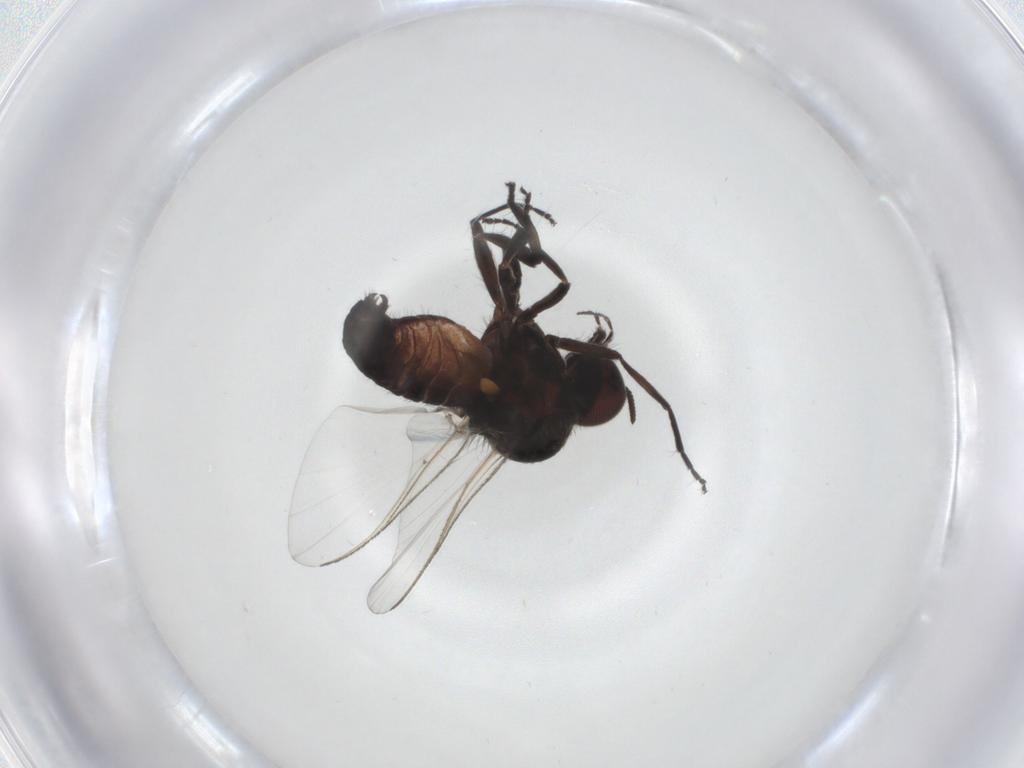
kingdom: Animalia
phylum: Arthropoda
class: Insecta
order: Diptera
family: Chironomidae
